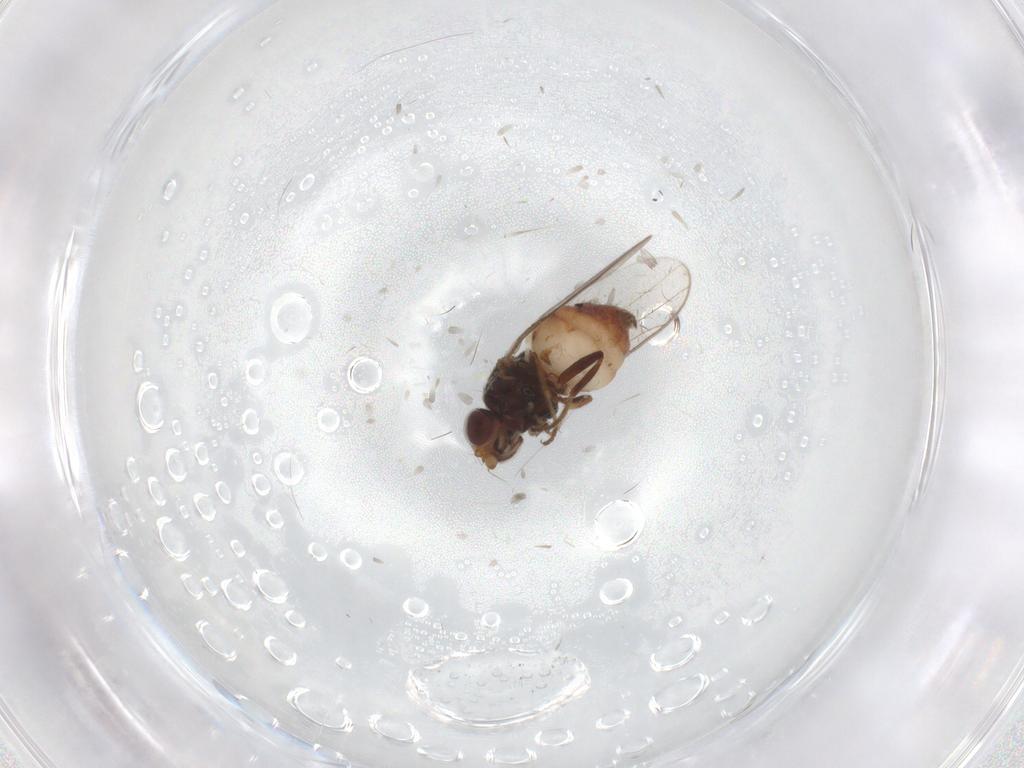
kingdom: Animalia
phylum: Arthropoda
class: Insecta
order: Diptera
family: Chloropidae
